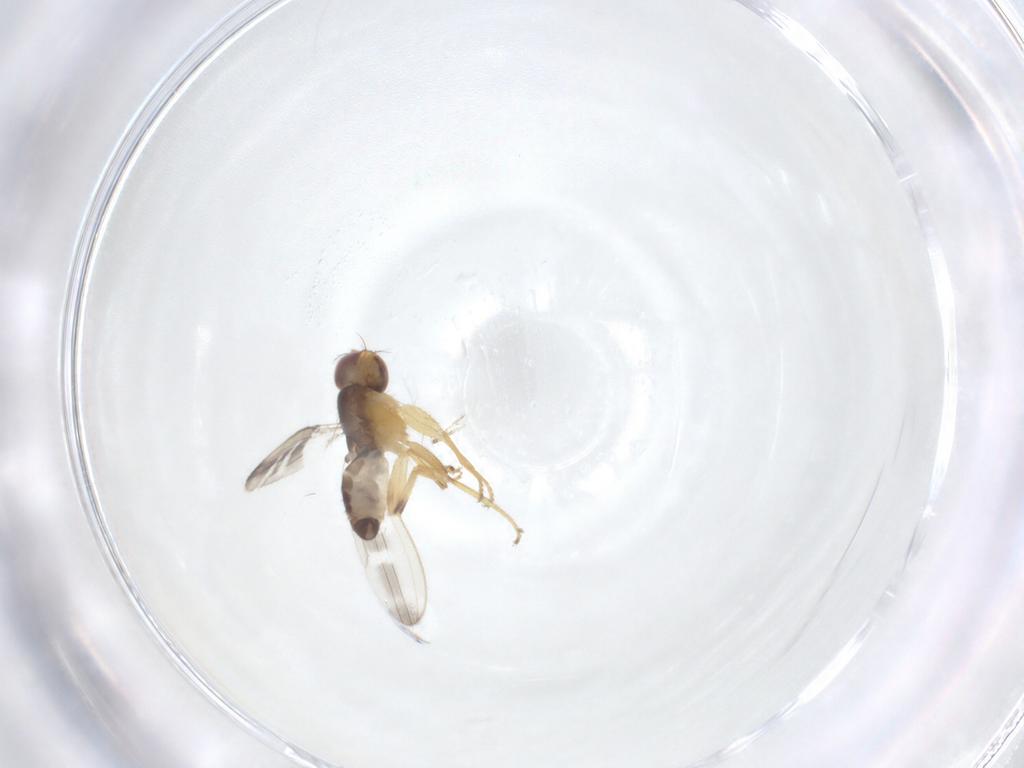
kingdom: Animalia
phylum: Arthropoda
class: Insecta
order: Diptera
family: Periscelididae
